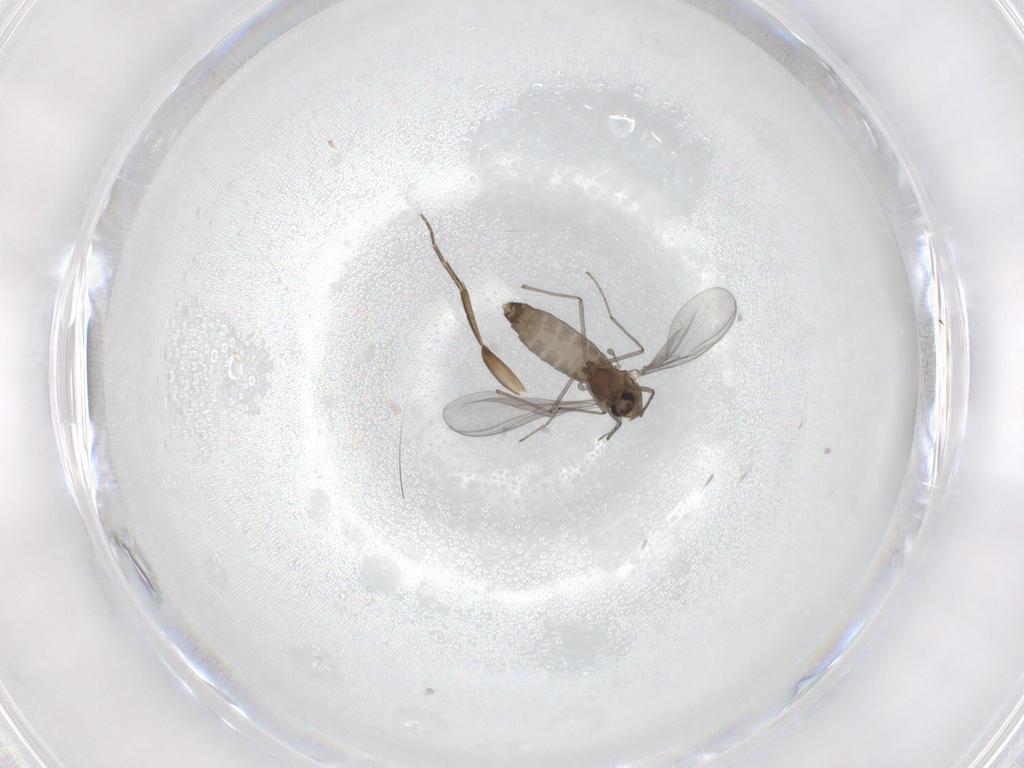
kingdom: Animalia
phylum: Arthropoda
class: Insecta
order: Diptera
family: Chironomidae
